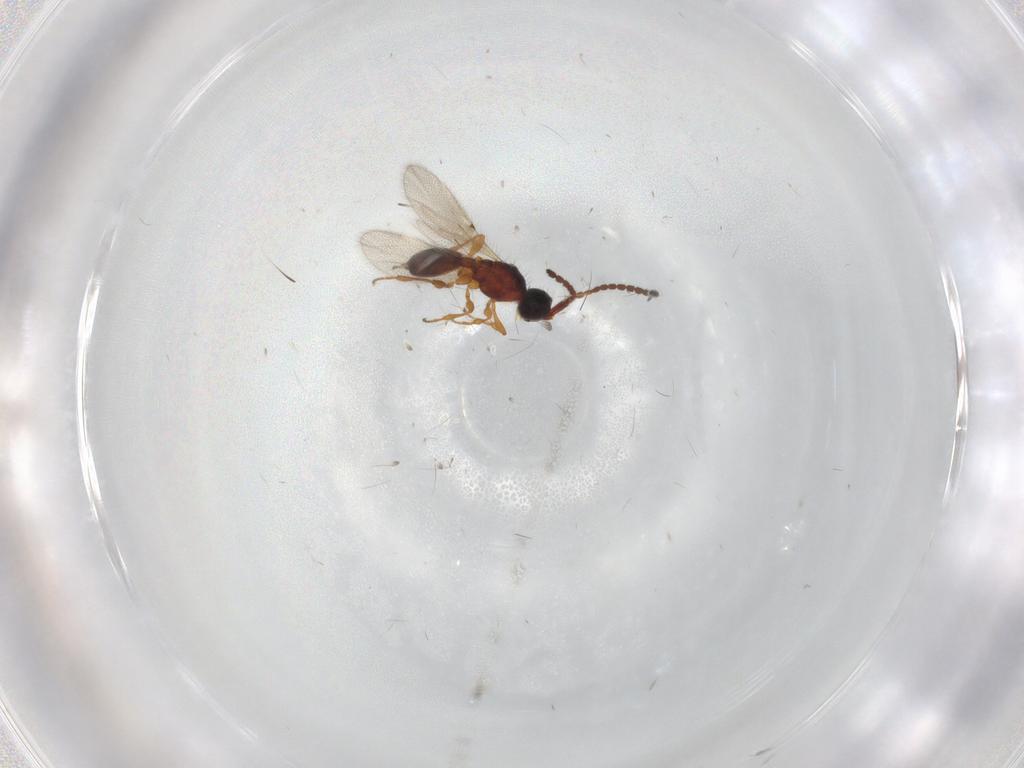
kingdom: Animalia
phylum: Arthropoda
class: Insecta
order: Hymenoptera
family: Diapriidae
